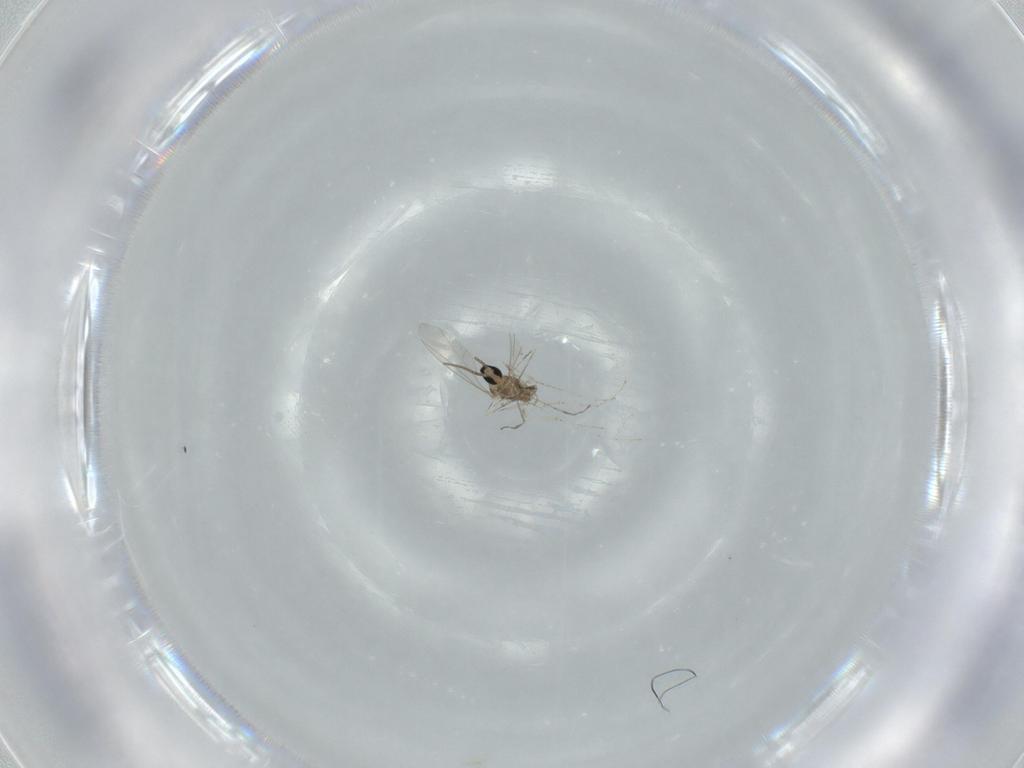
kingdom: Animalia
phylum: Arthropoda
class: Insecta
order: Diptera
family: Cecidomyiidae
